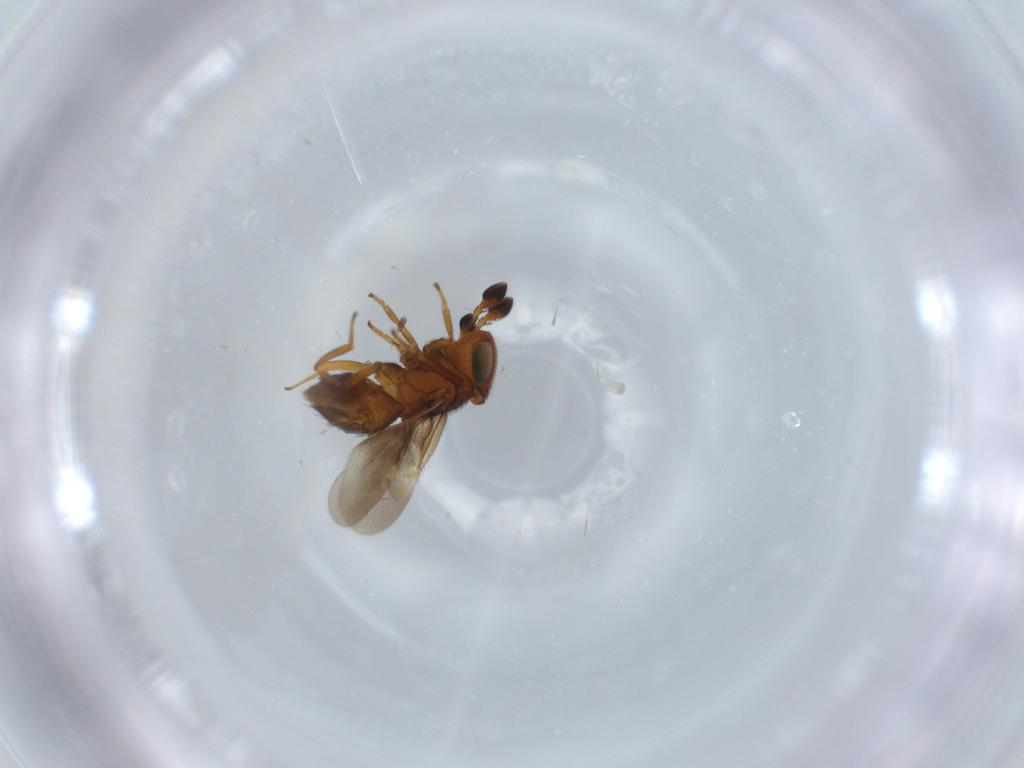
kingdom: Animalia
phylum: Arthropoda
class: Insecta
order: Hymenoptera
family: Encyrtidae
